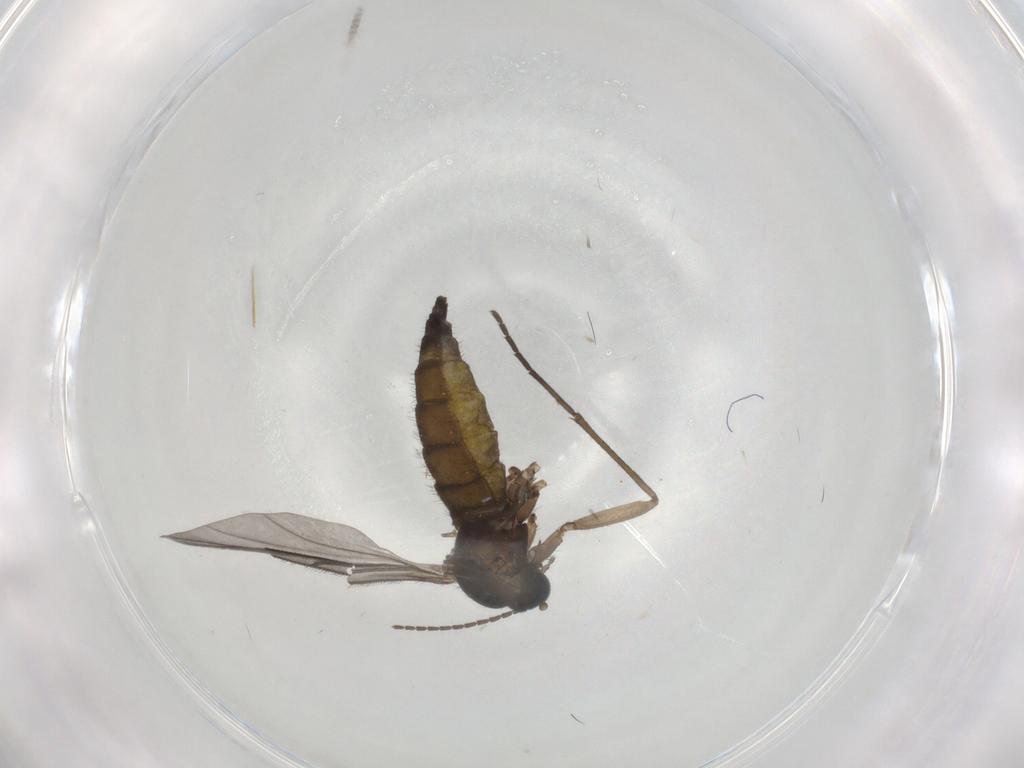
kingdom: Animalia
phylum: Arthropoda
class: Insecta
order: Diptera
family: Sciaridae
